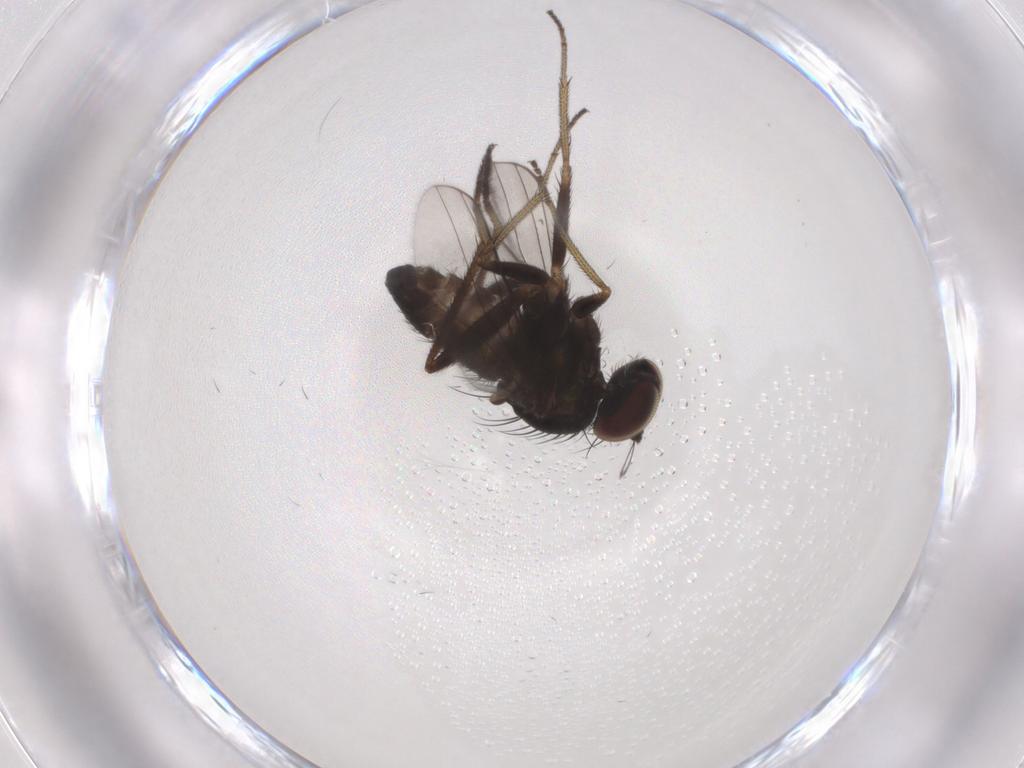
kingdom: Animalia
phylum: Arthropoda
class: Insecta
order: Diptera
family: Dolichopodidae
